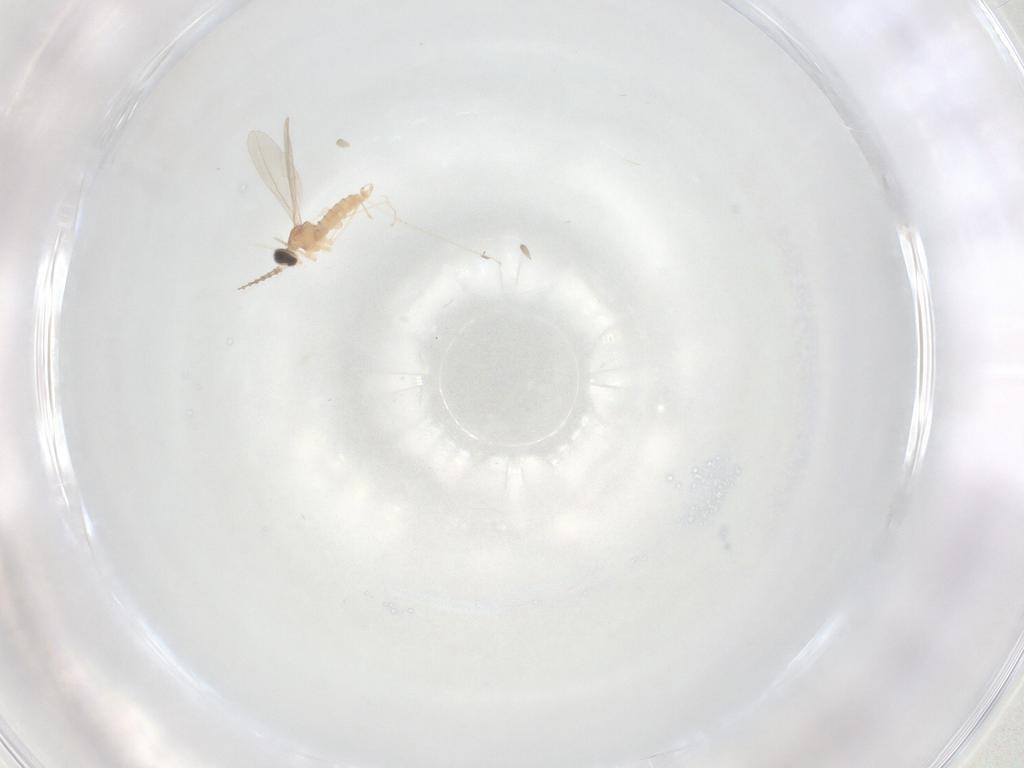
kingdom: Animalia
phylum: Arthropoda
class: Insecta
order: Diptera
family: Cecidomyiidae
